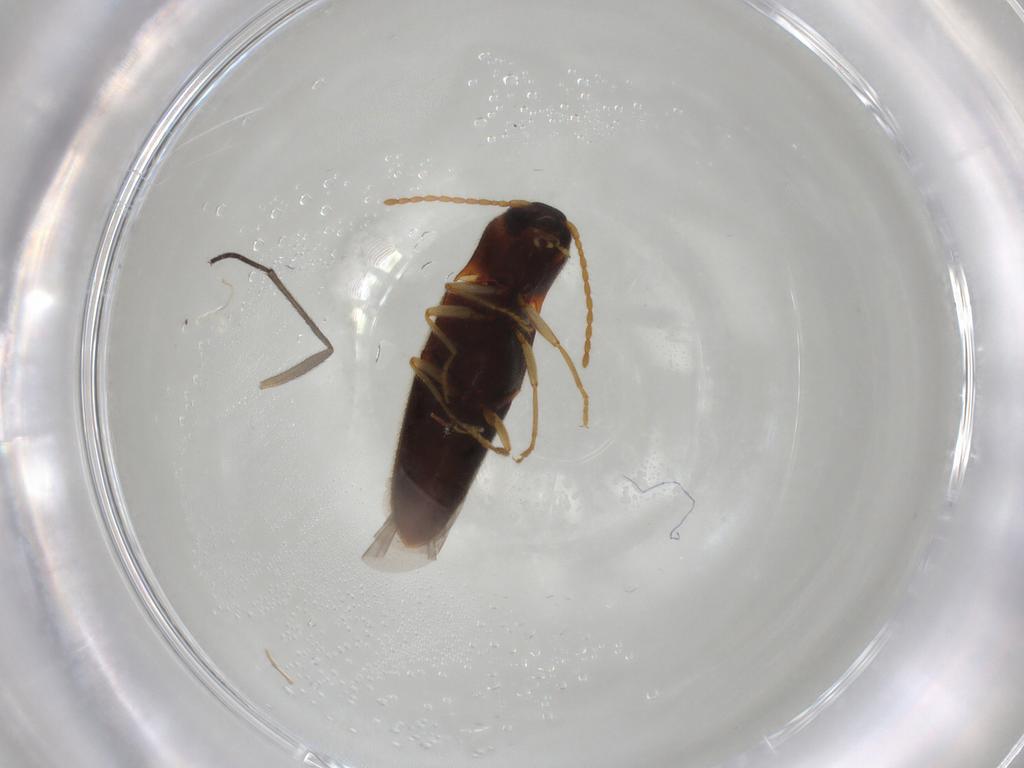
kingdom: Animalia
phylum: Arthropoda
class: Insecta
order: Coleoptera
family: Elateridae
